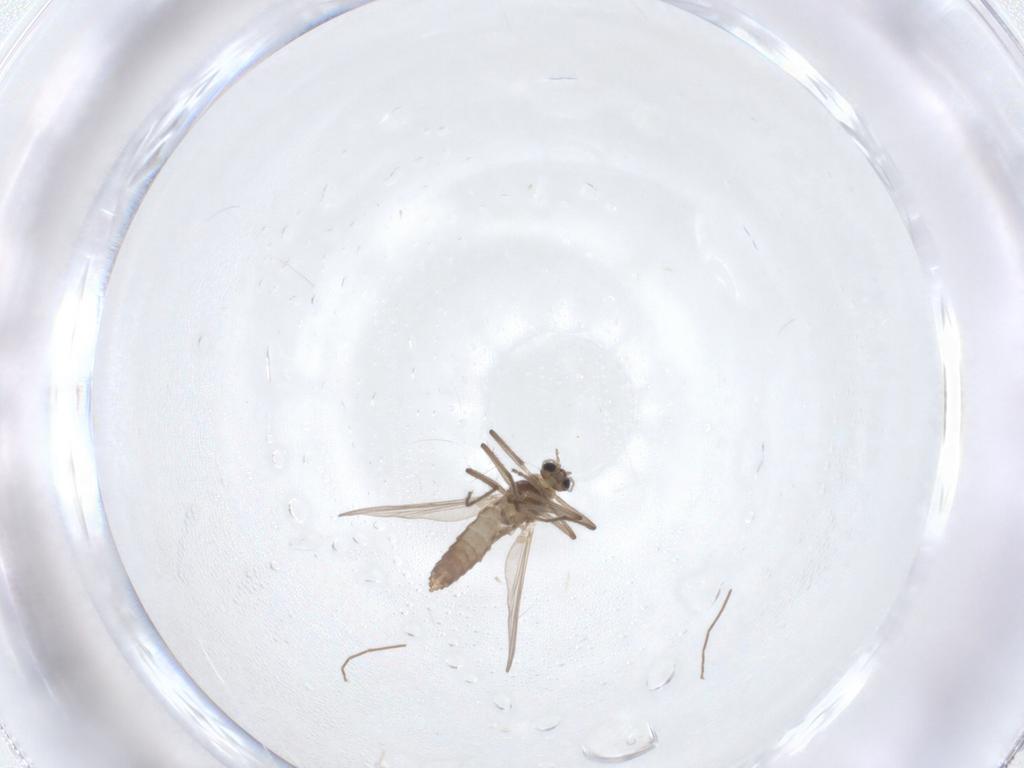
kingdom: Animalia
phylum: Arthropoda
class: Insecta
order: Diptera
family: Chironomidae
